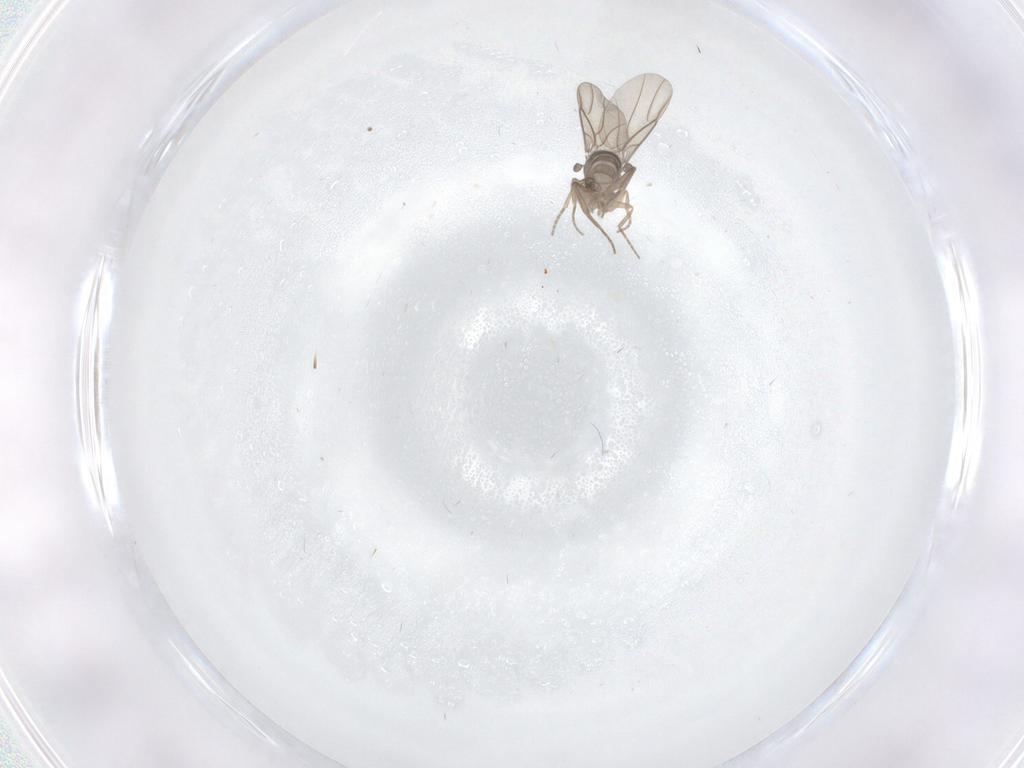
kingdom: Animalia
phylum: Arthropoda
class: Insecta
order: Diptera
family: Phoridae
